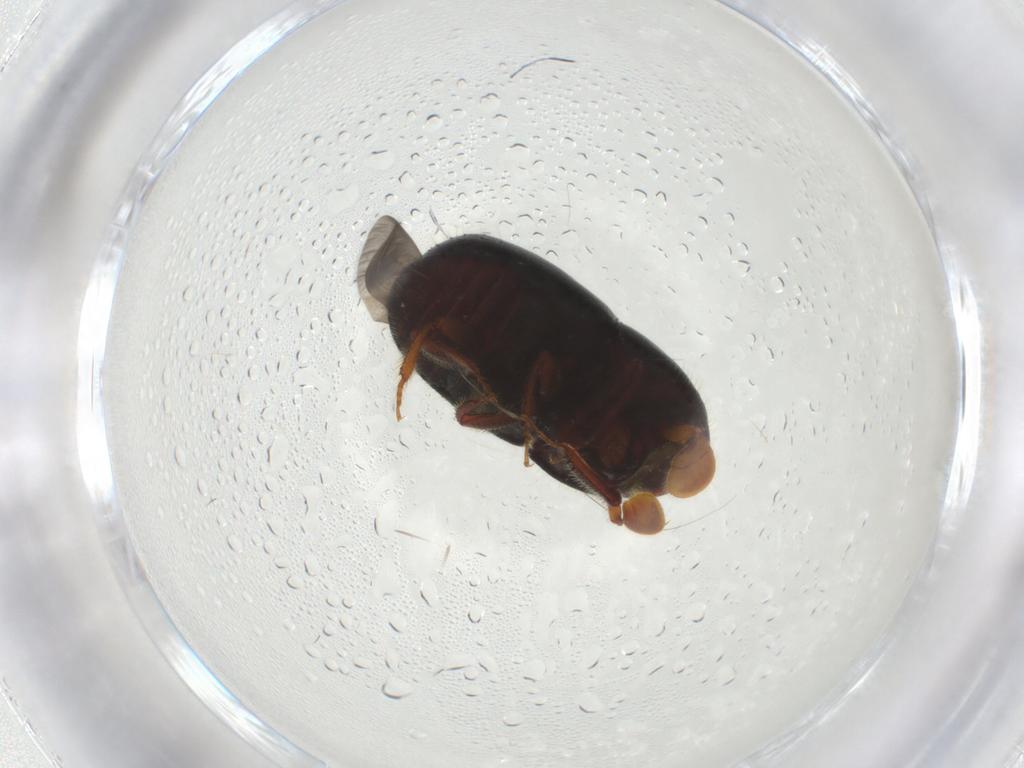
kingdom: Animalia
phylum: Arthropoda
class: Insecta
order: Coleoptera
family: Curculionidae
